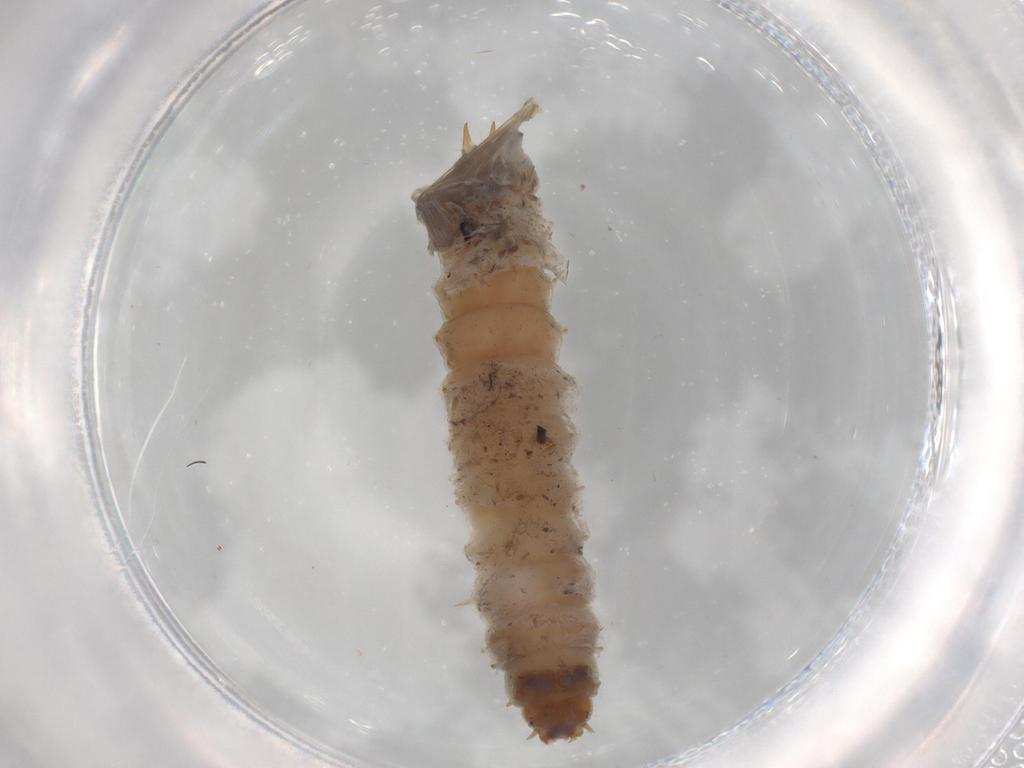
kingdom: Animalia
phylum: Arthropoda
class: Insecta
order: Coleoptera
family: Nitidulidae
